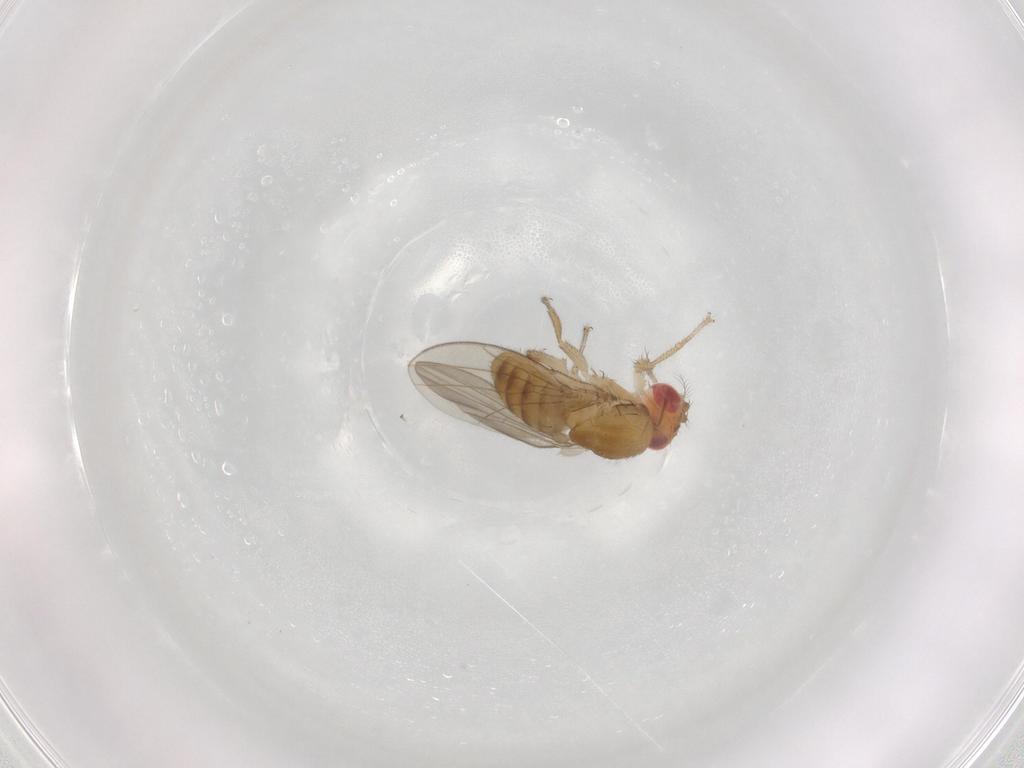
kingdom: Animalia
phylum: Arthropoda
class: Insecta
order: Diptera
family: Drosophilidae
